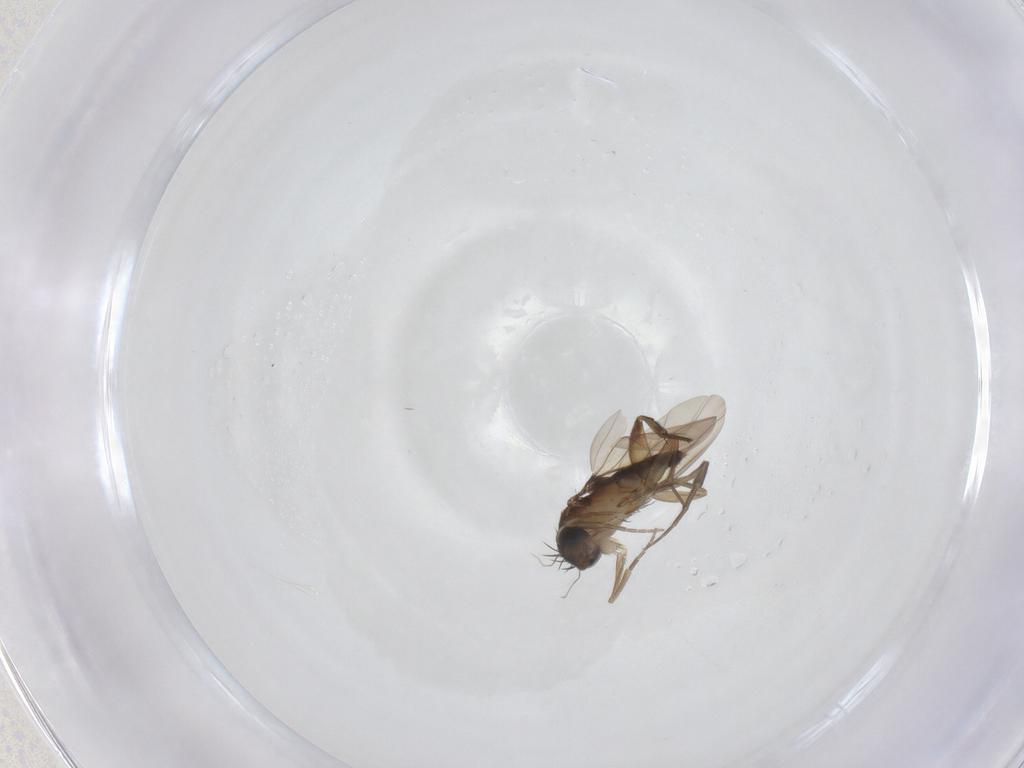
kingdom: Animalia
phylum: Arthropoda
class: Insecta
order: Diptera
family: Phoridae
